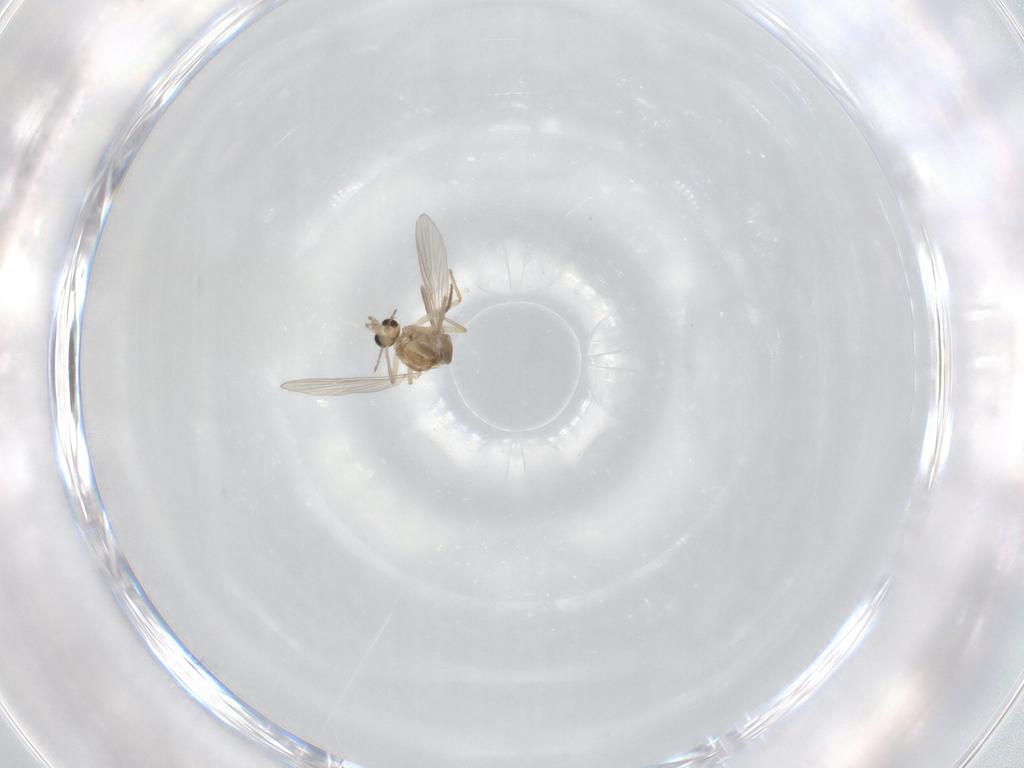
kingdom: Animalia
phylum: Arthropoda
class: Insecta
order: Diptera
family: Chironomidae
